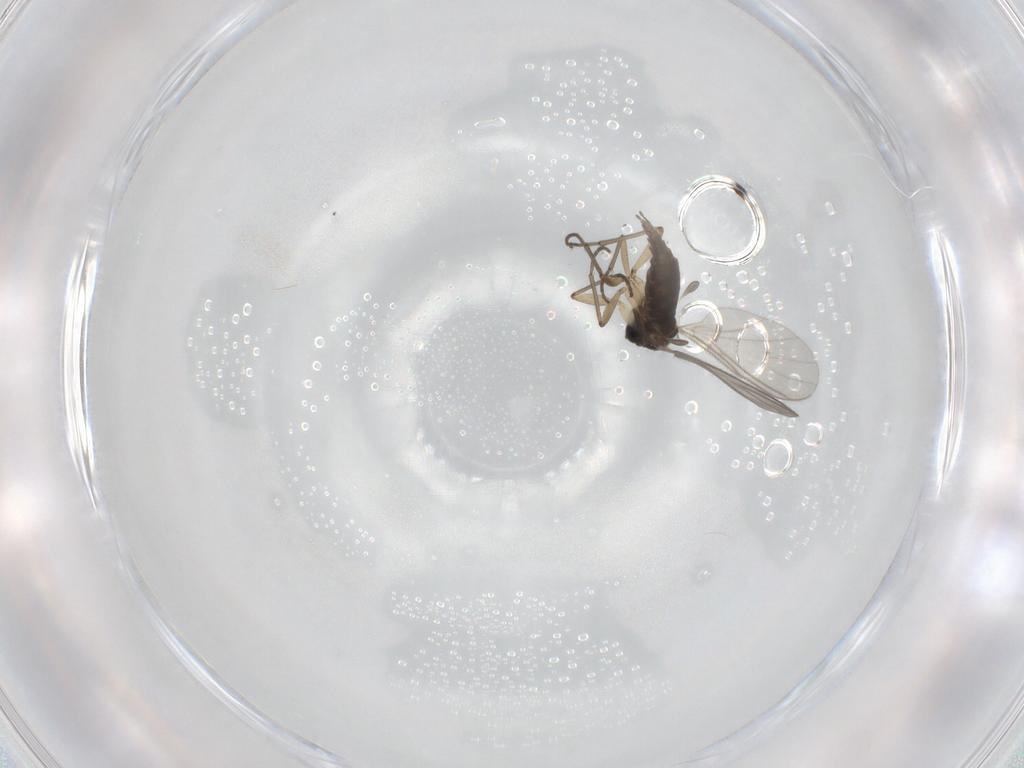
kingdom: Animalia
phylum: Arthropoda
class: Insecta
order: Diptera
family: Sciaridae
